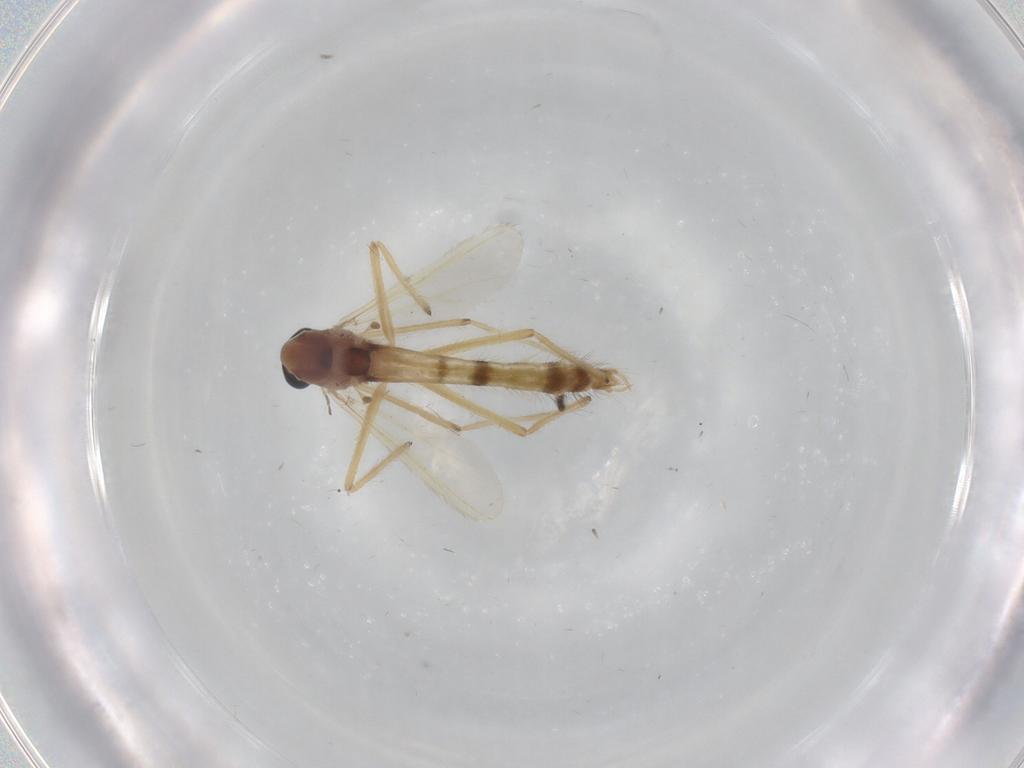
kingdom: Animalia
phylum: Arthropoda
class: Insecta
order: Diptera
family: Chironomidae
